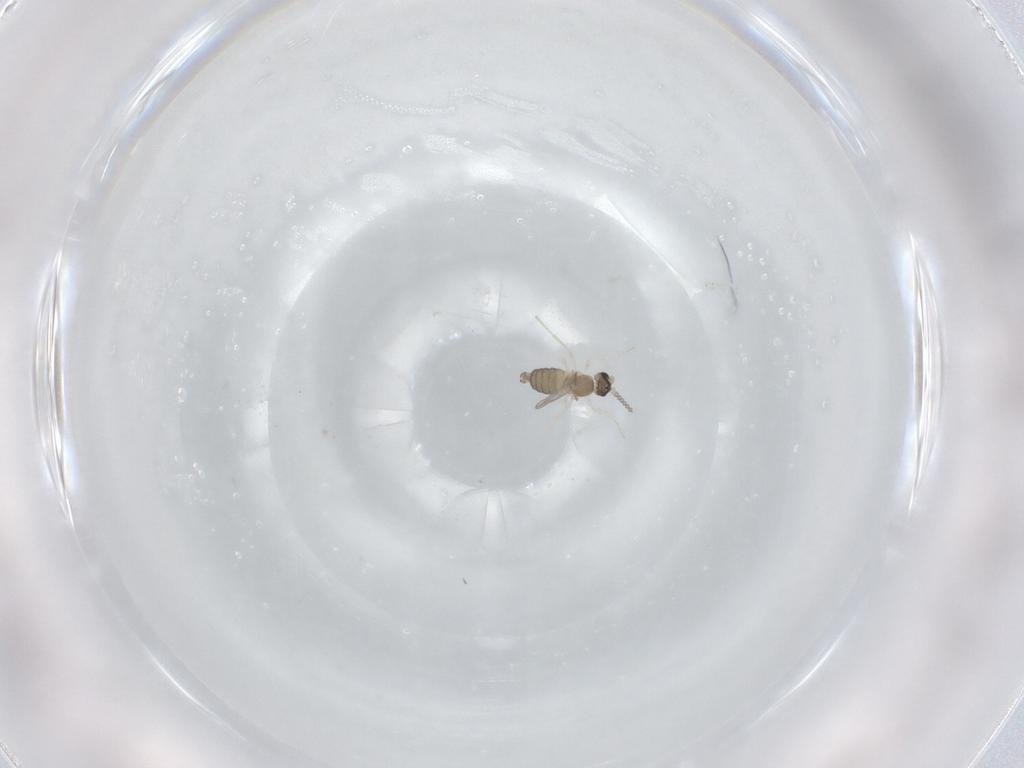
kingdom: Animalia
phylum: Arthropoda
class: Insecta
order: Diptera
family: Cecidomyiidae
